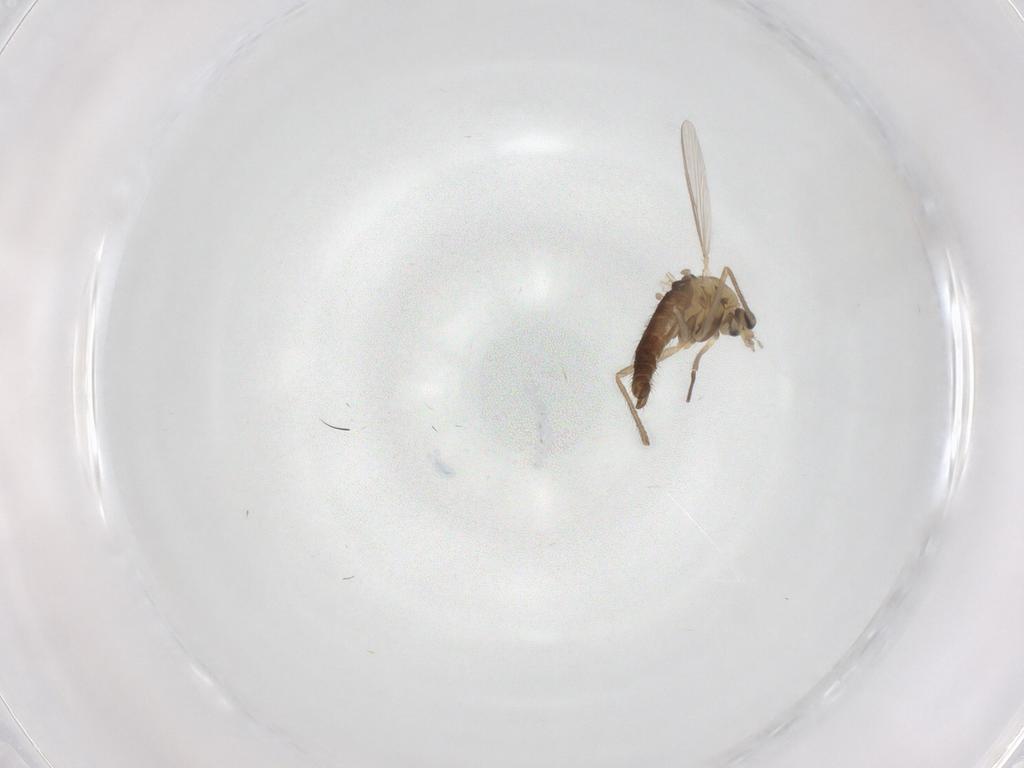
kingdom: Animalia
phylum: Arthropoda
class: Insecta
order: Diptera
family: Chironomidae
